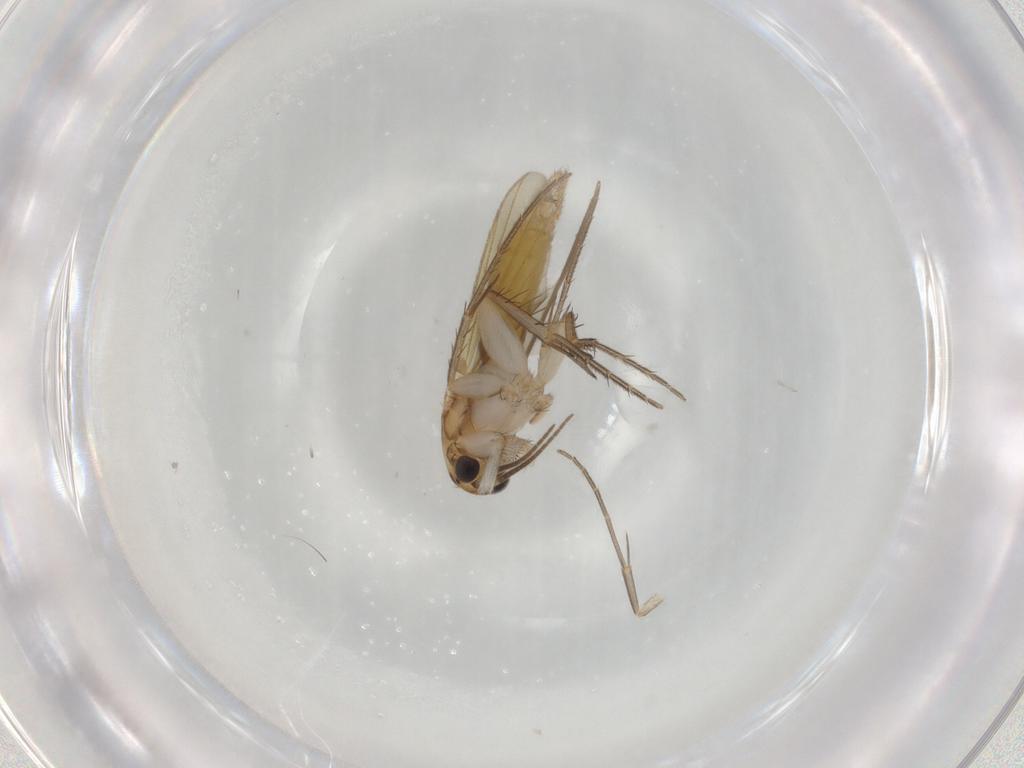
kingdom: Animalia
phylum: Arthropoda
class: Insecta
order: Diptera
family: Mycetophilidae
